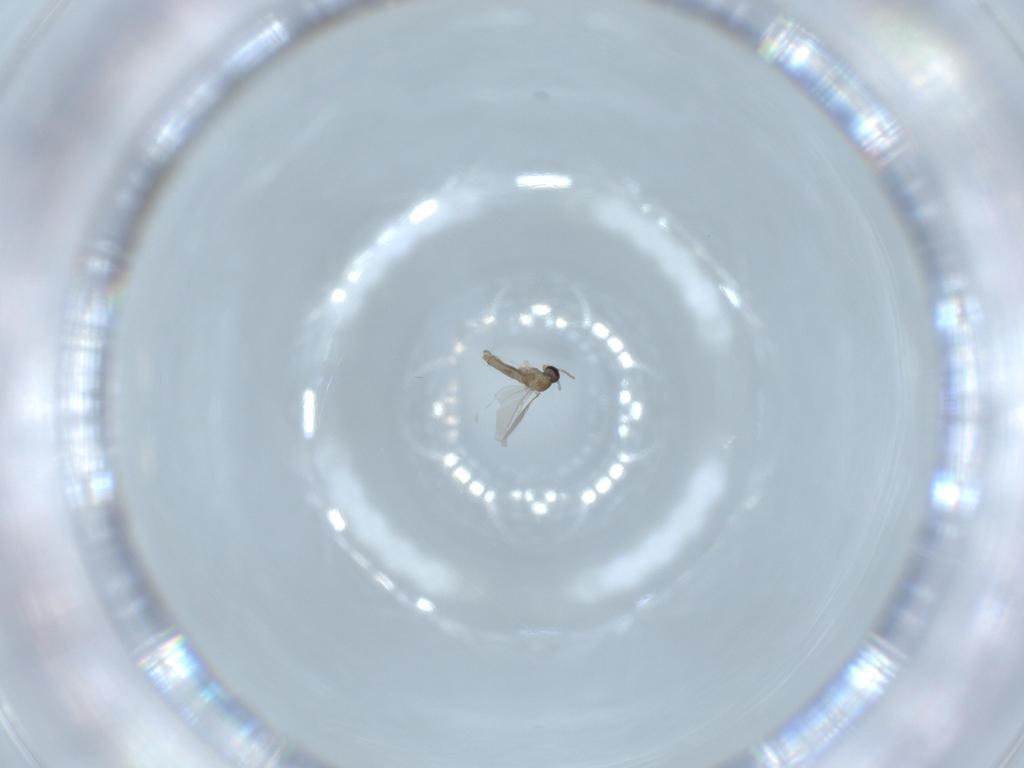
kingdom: Animalia
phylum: Arthropoda
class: Insecta
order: Diptera
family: Cecidomyiidae
